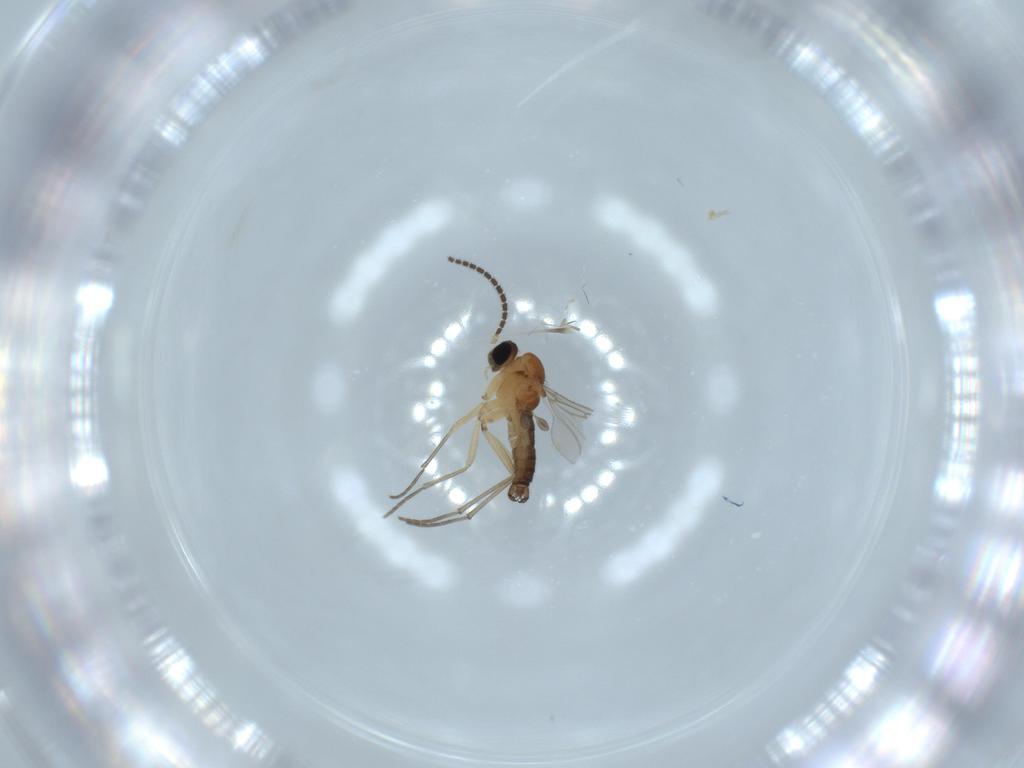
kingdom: Animalia
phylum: Arthropoda
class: Insecta
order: Diptera
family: Sciaridae
